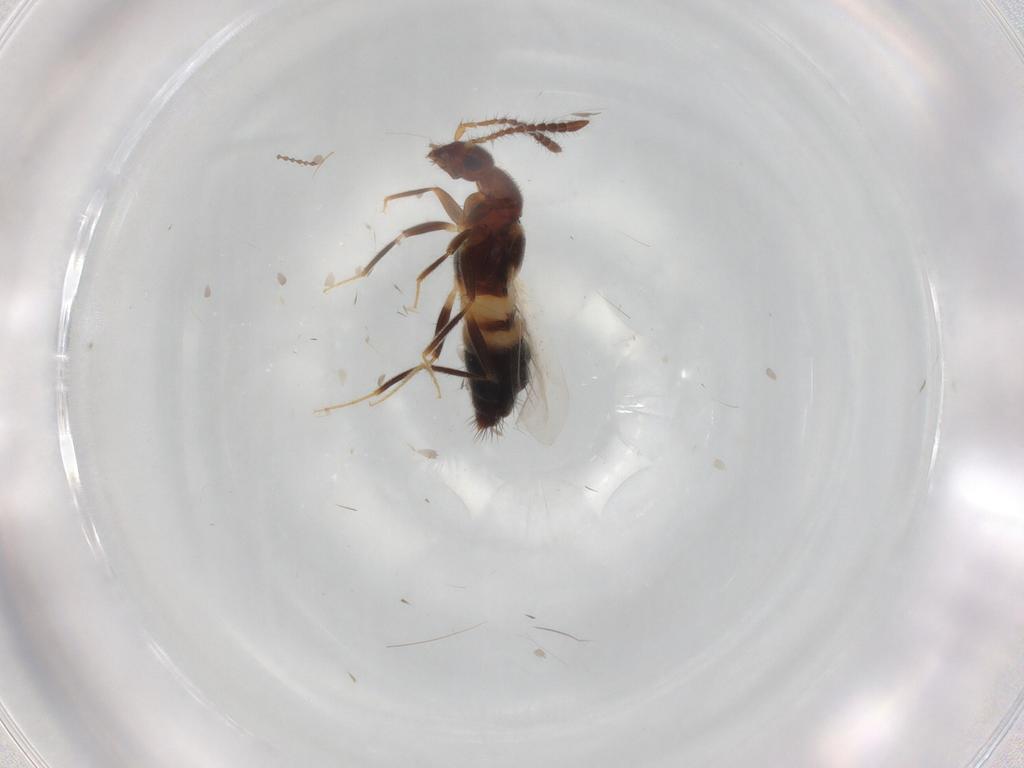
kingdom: Animalia
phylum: Arthropoda
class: Insecta
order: Coleoptera
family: Staphylinidae
